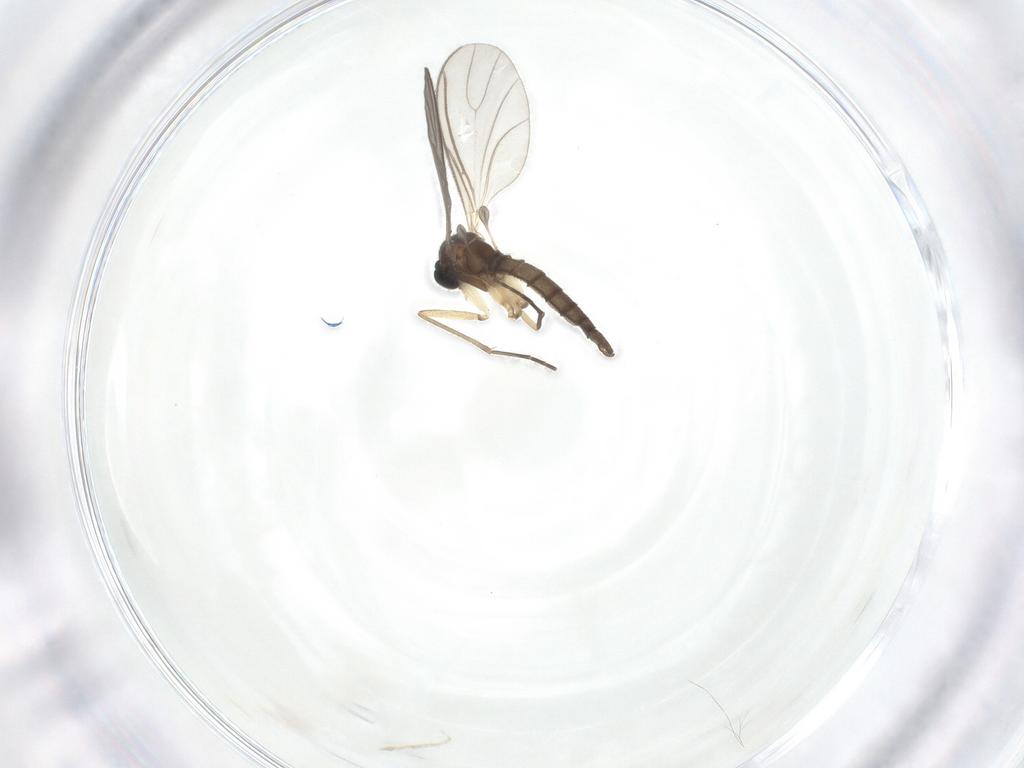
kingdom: Animalia
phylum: Arthropoda
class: Insecta
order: Diptera
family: Sciaridae
